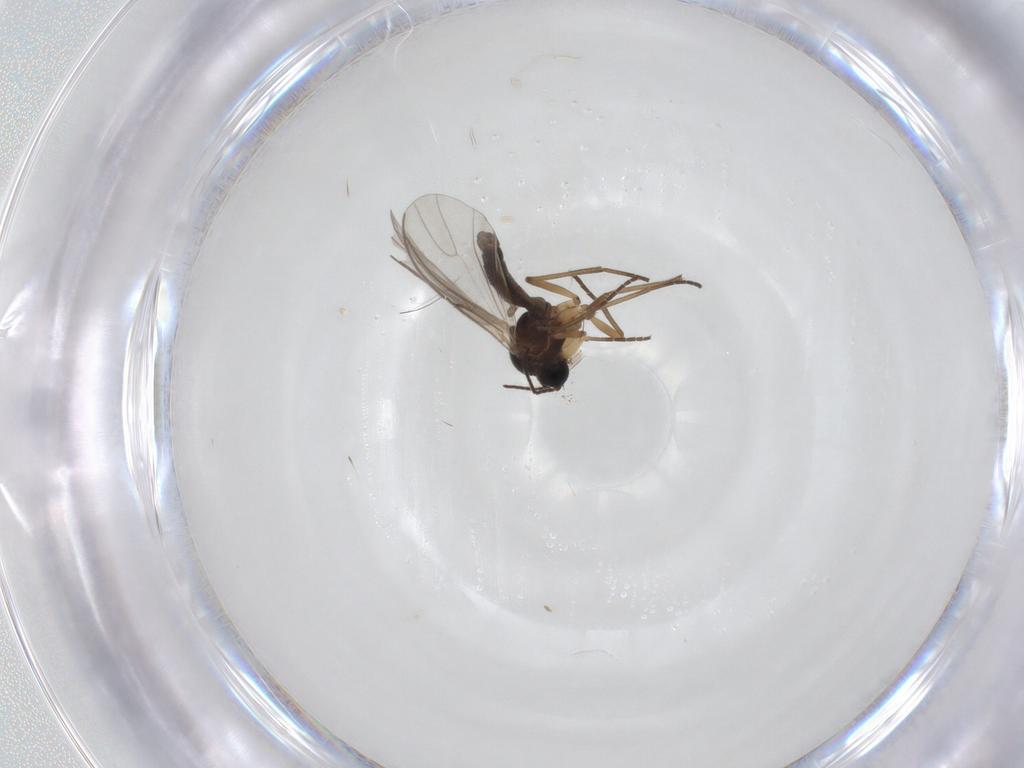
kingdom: Animalia
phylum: Arthropoda
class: Insecta
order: Diptera
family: Sciaridae
